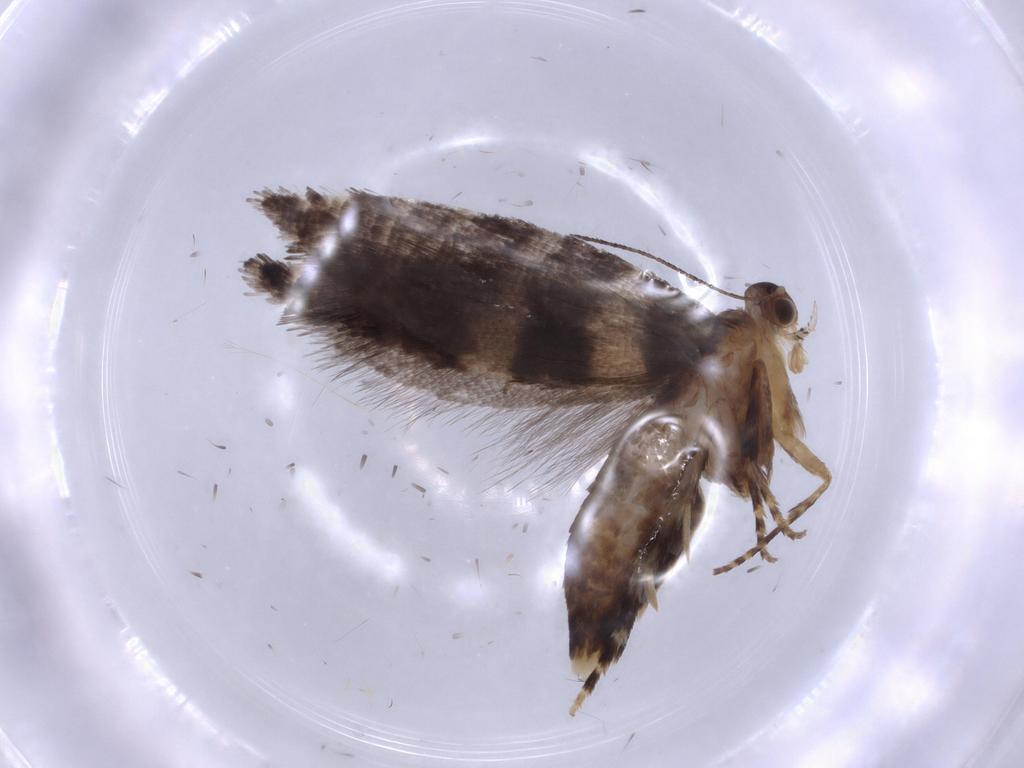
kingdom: Animalia
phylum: Arthropoda
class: Insecta
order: Lepidoptera
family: Glyphipterigidae
